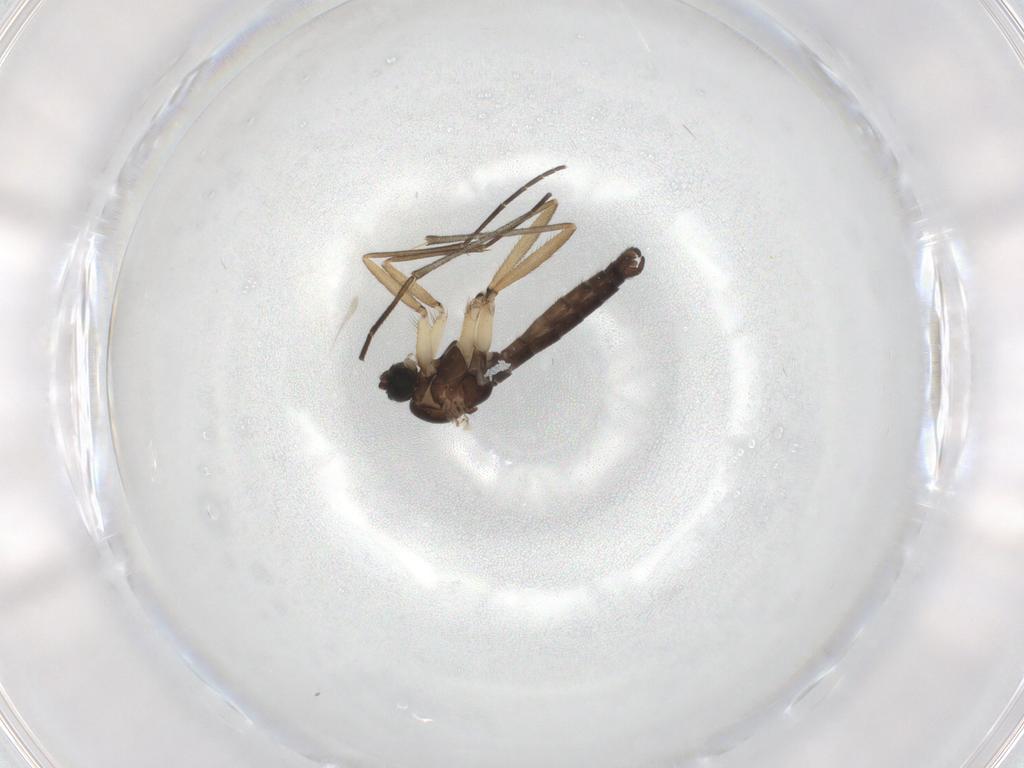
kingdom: Animalia
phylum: Arthropoda
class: Insecta
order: Diptera
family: Sciaridae
